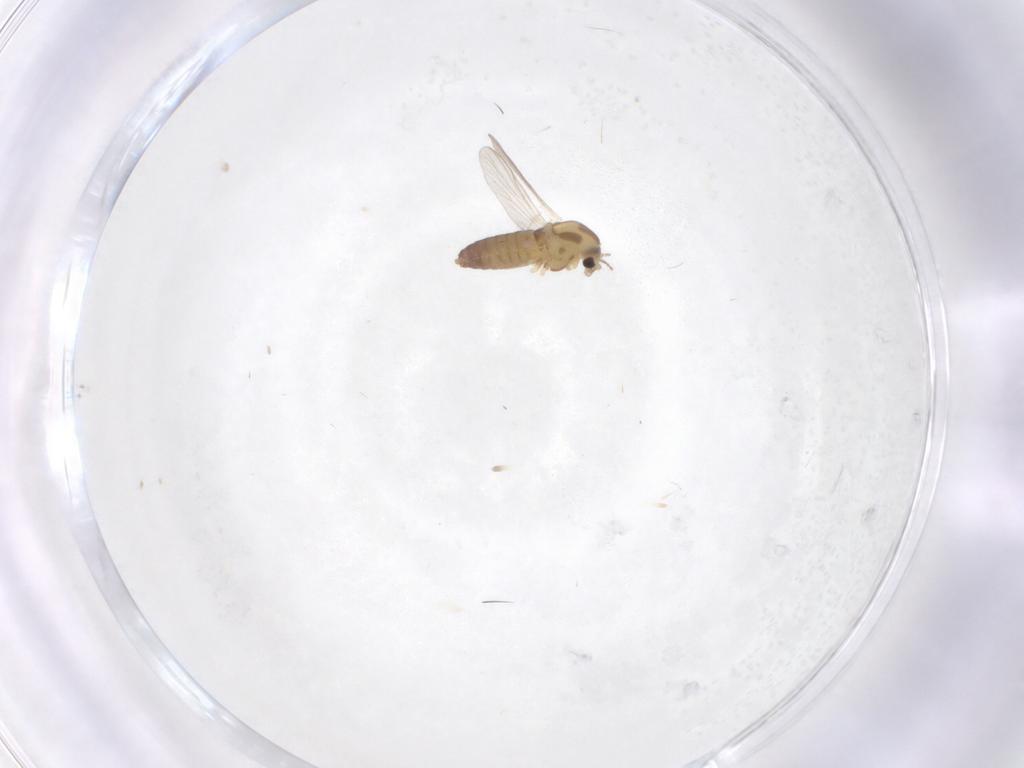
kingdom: Animalia
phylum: Arthropoda
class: Insecta
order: Diptera
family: Chironomidae
